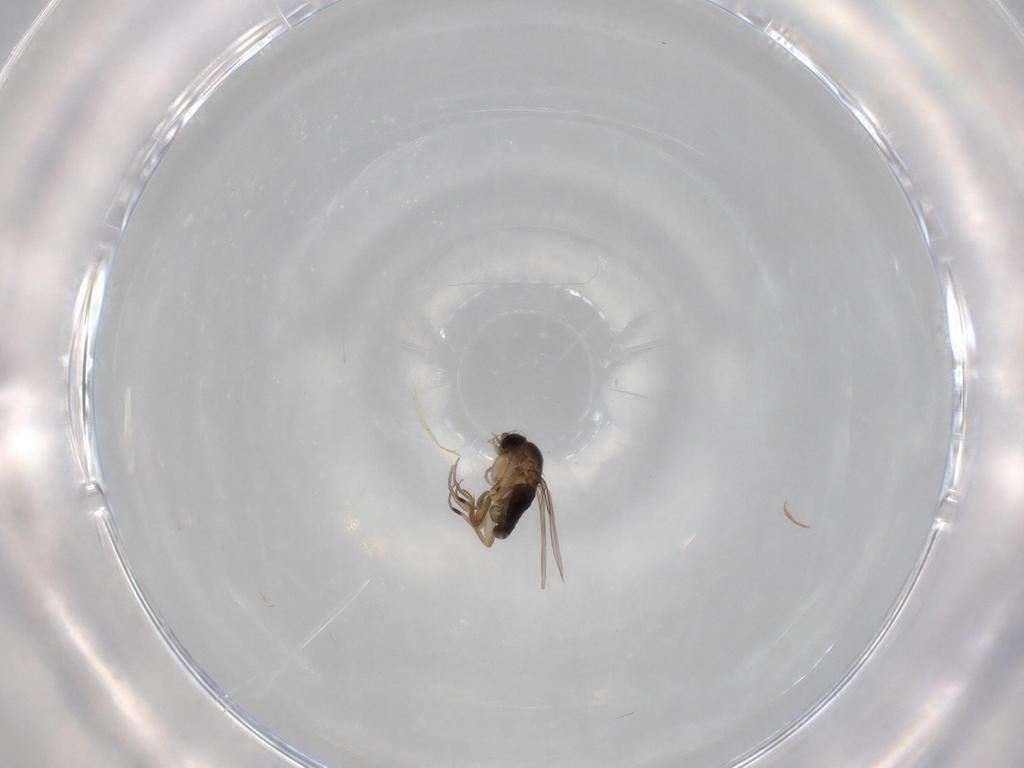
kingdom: Animalia
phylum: Arthropoda
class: Insecta
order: Diptera
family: Phoridae
